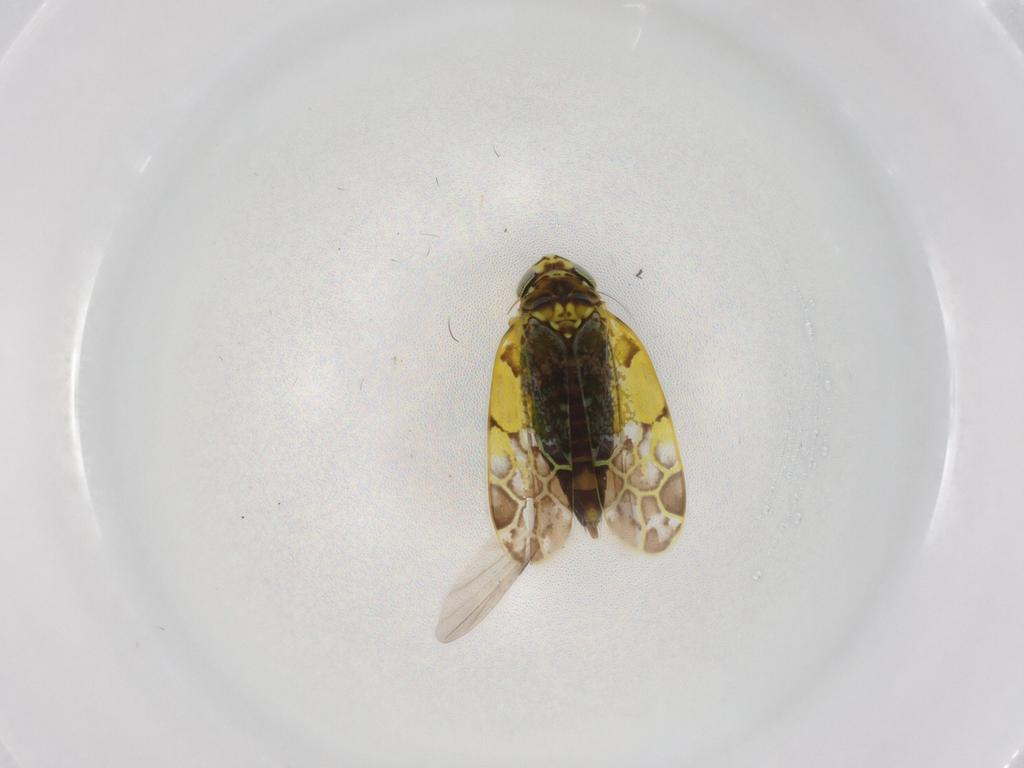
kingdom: Animalia
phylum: Arthropoda
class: Insecta
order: Hemiptera
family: Cicadellidae
